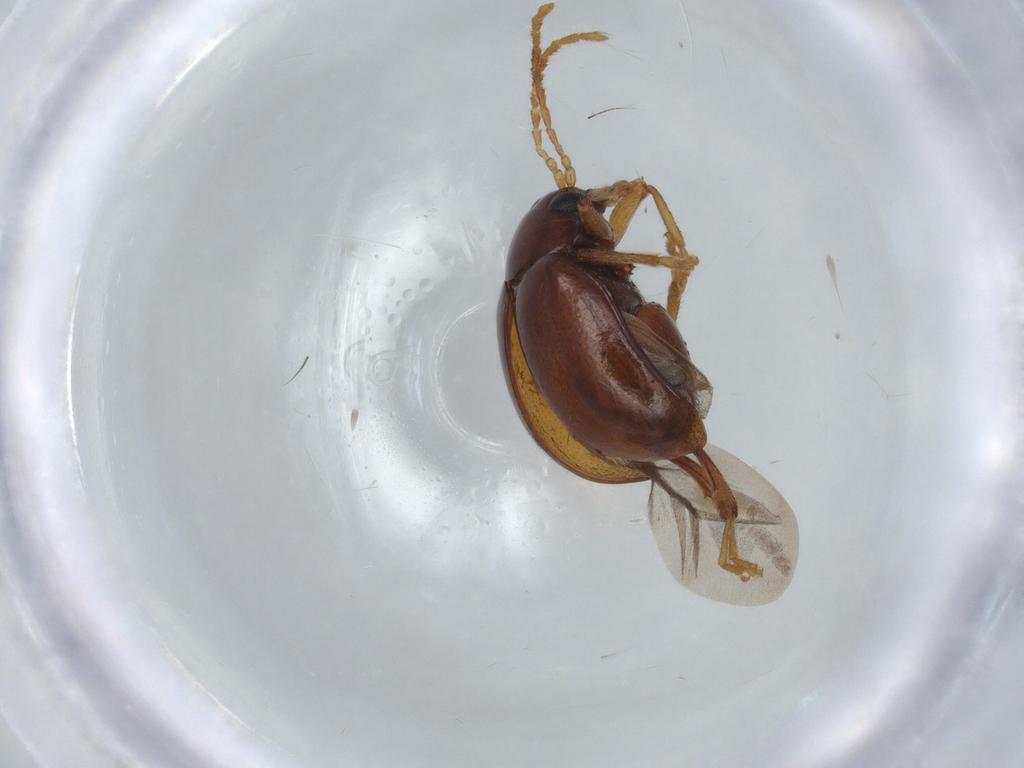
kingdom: Animalia
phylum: Arthropoda
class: Insecta
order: Coleoptera
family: Chrysomelidae
